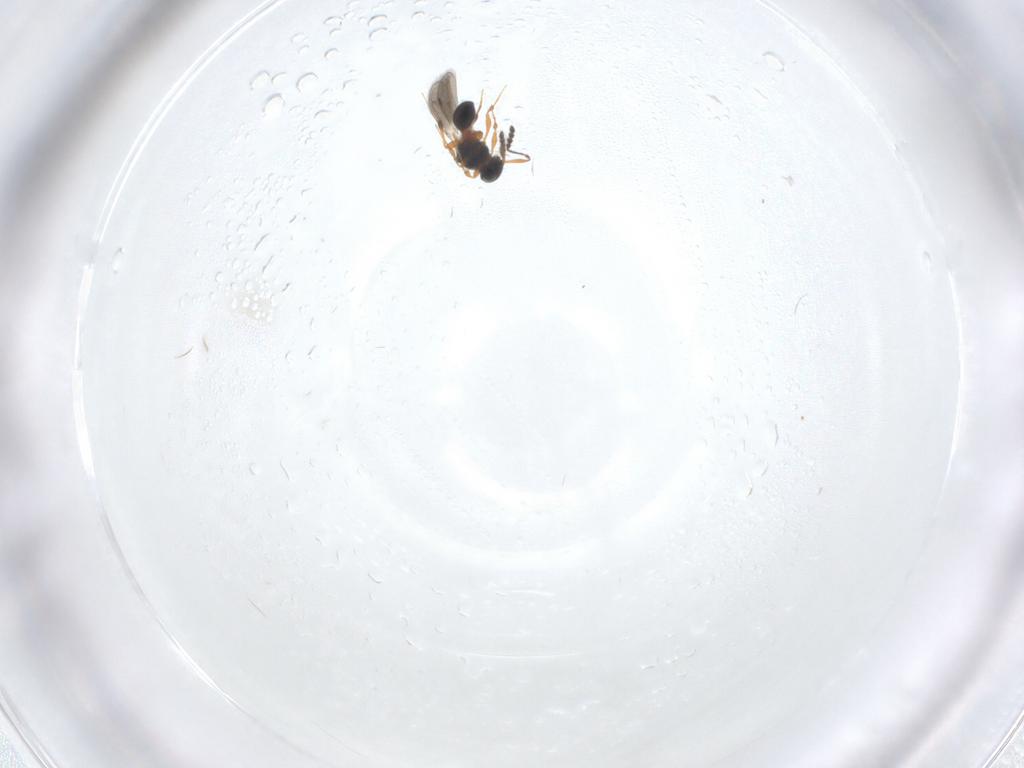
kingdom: Animalia
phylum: Arthropoda
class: Insecta
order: Hymenoptera
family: Platygastridae
